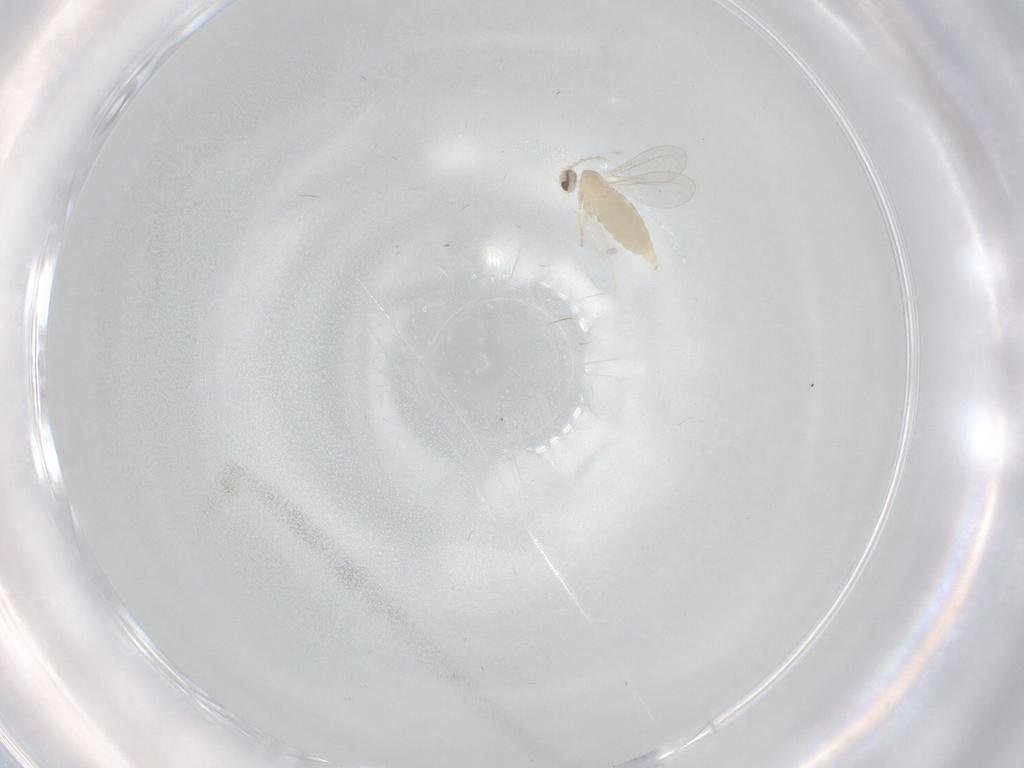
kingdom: Animalia
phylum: Arthropoda
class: Insecta
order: Diptera
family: Cecidomyiidae
